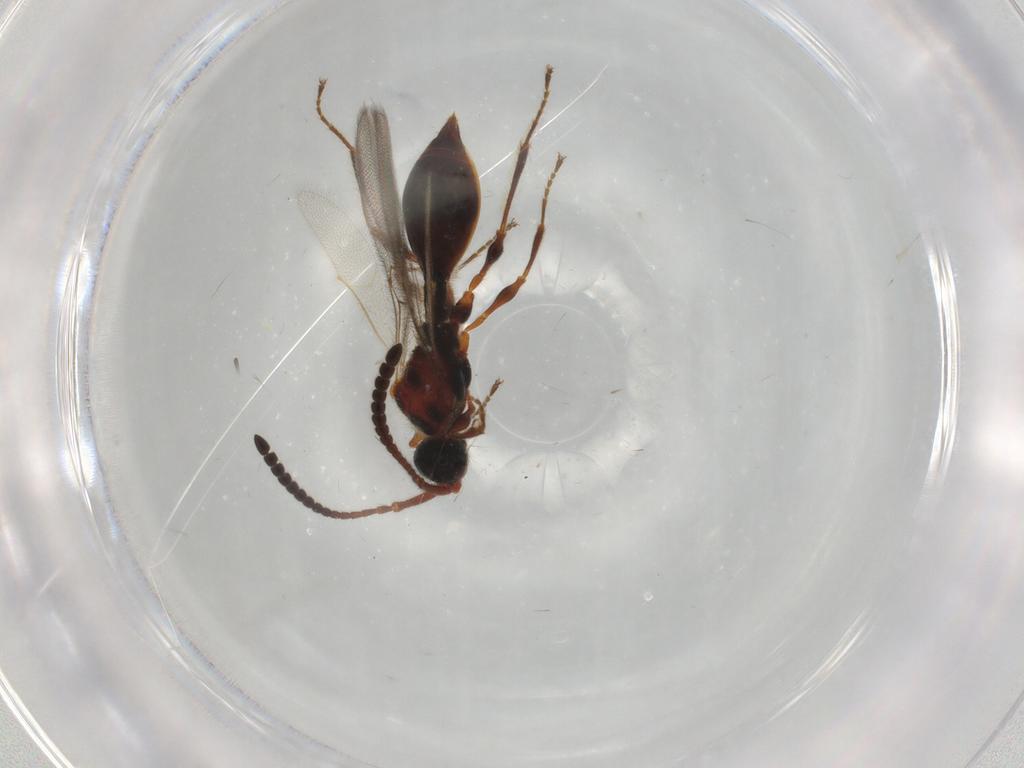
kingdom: Animalia
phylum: Arthropoda
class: Insecta
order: Hymenoptera
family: Diapriidae
